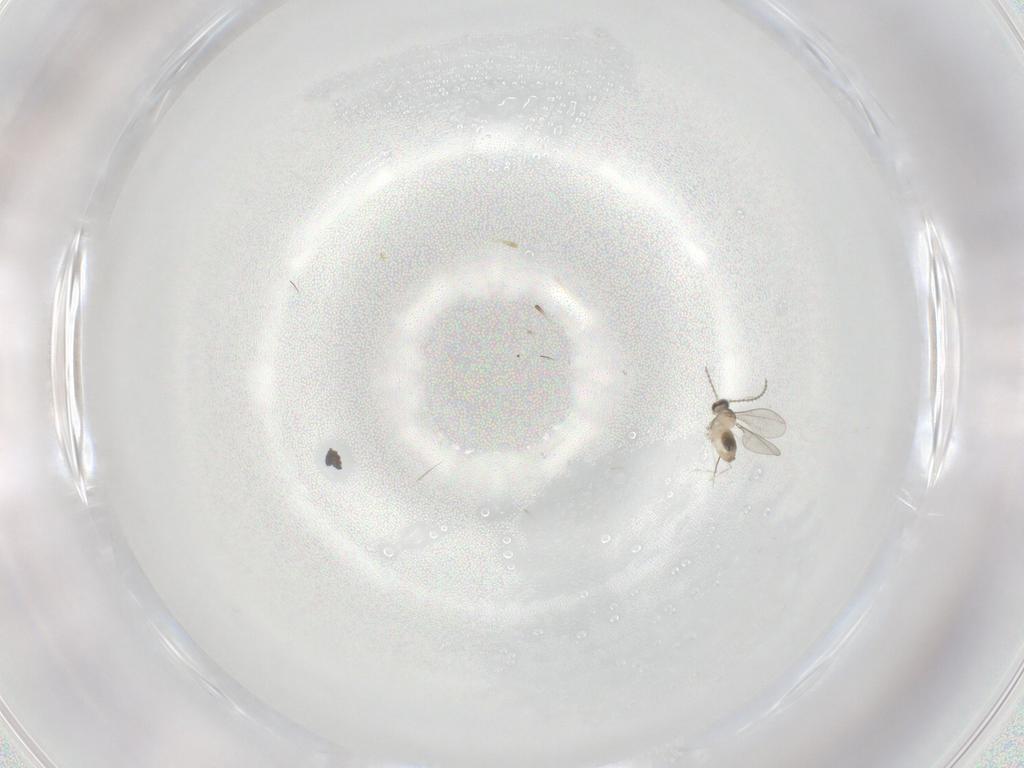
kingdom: Animalia
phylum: Arthropoda
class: Insecta
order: Diptera
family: Cecidomyiidae
